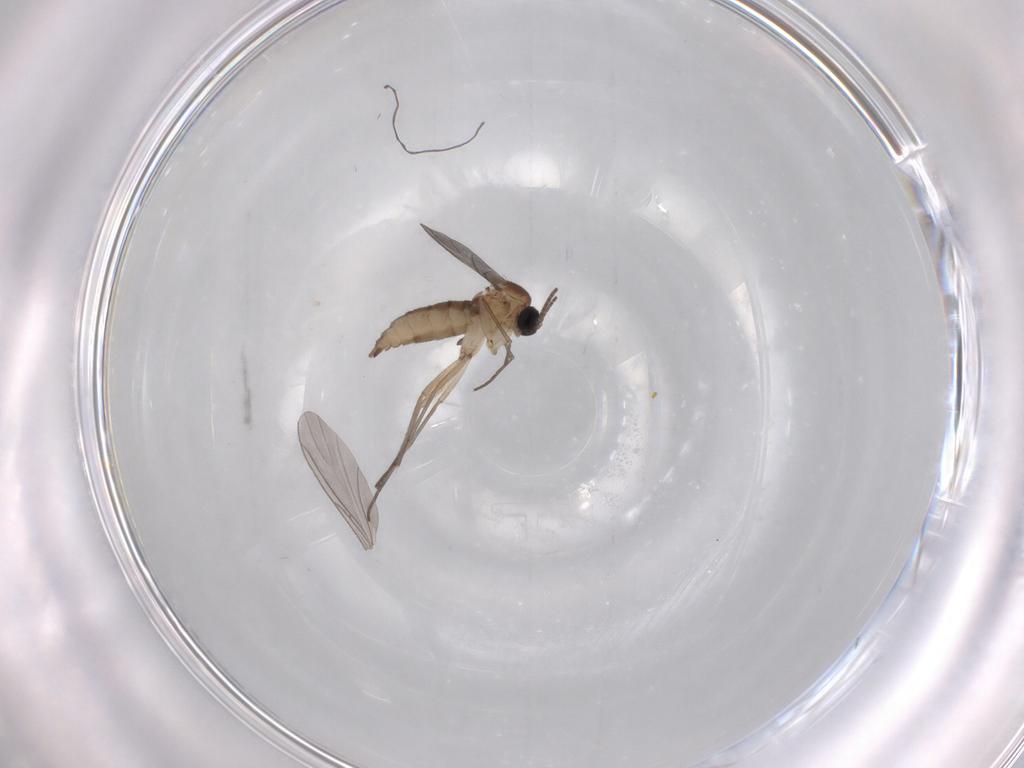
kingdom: Animalia
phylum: Arthropoda
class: Insecta
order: Diptera
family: Sciaridae
